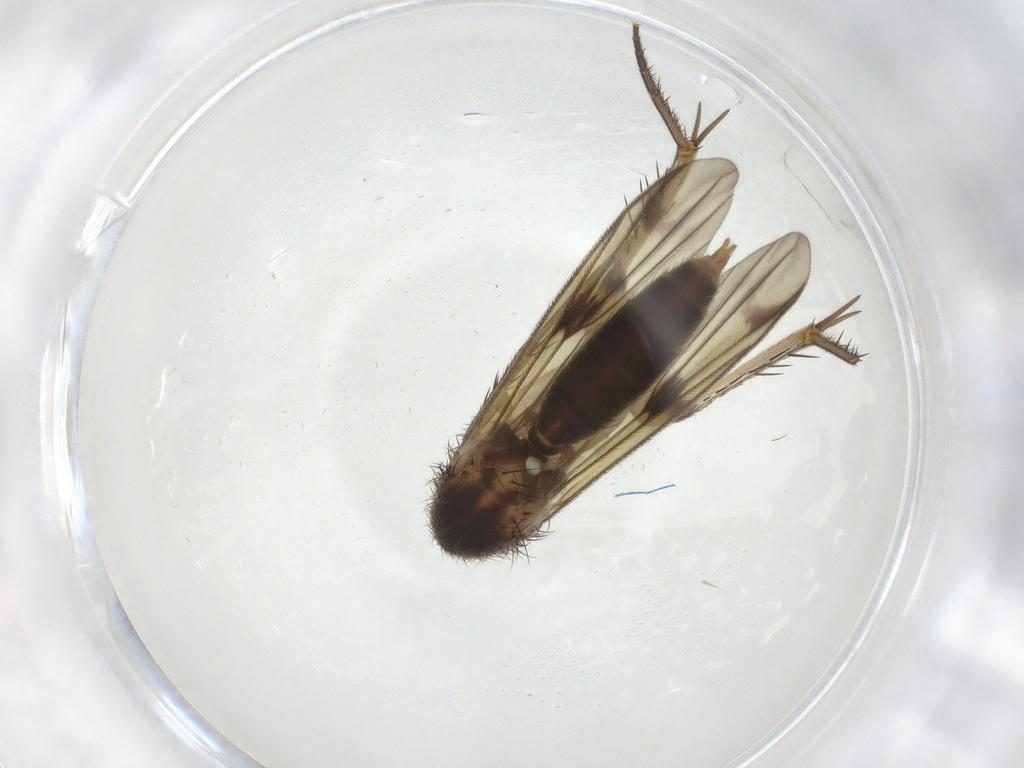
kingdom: Animalia
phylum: Arthropoda
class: Insecta
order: Diptera
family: Mycetophilidae
